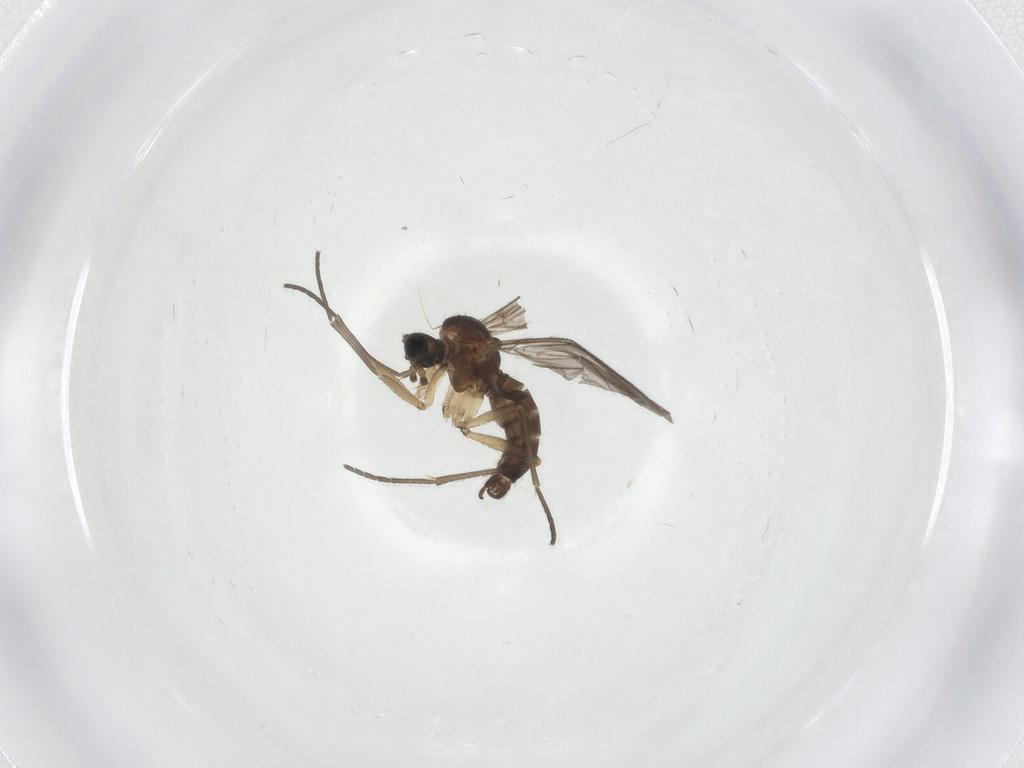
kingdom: Animalia
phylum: Arthropoda
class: Insecta
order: Diptera
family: Sciaridae
